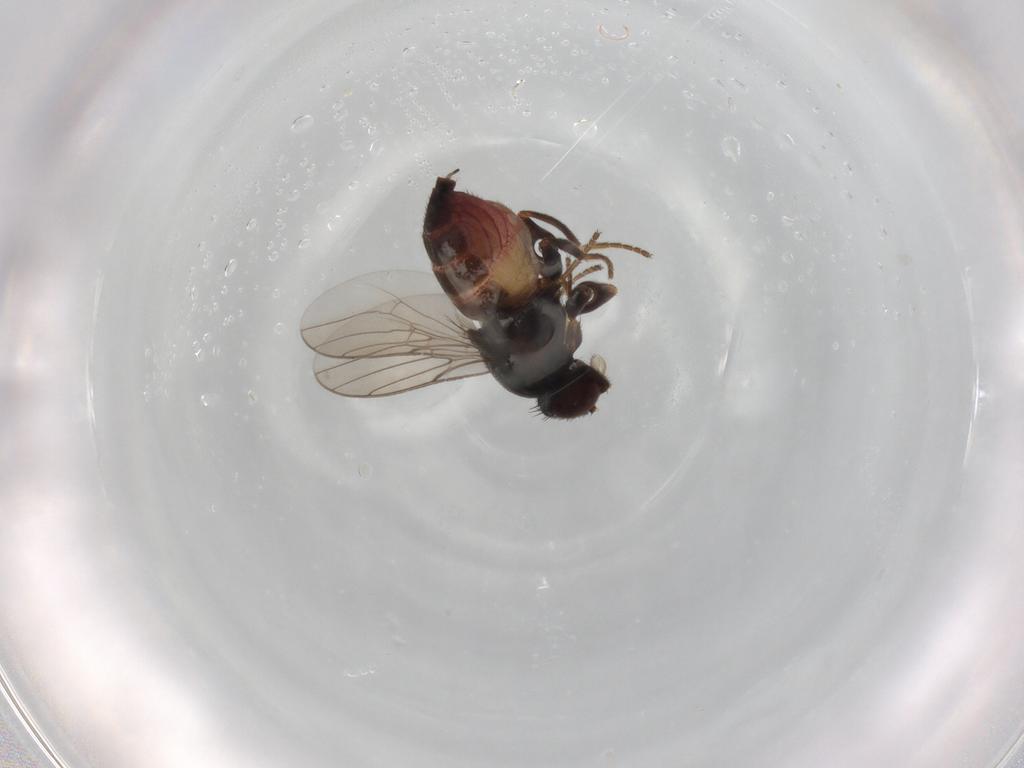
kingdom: Animalia
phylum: Arthropoda
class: Insecta
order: Diptera
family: Chloropidae
